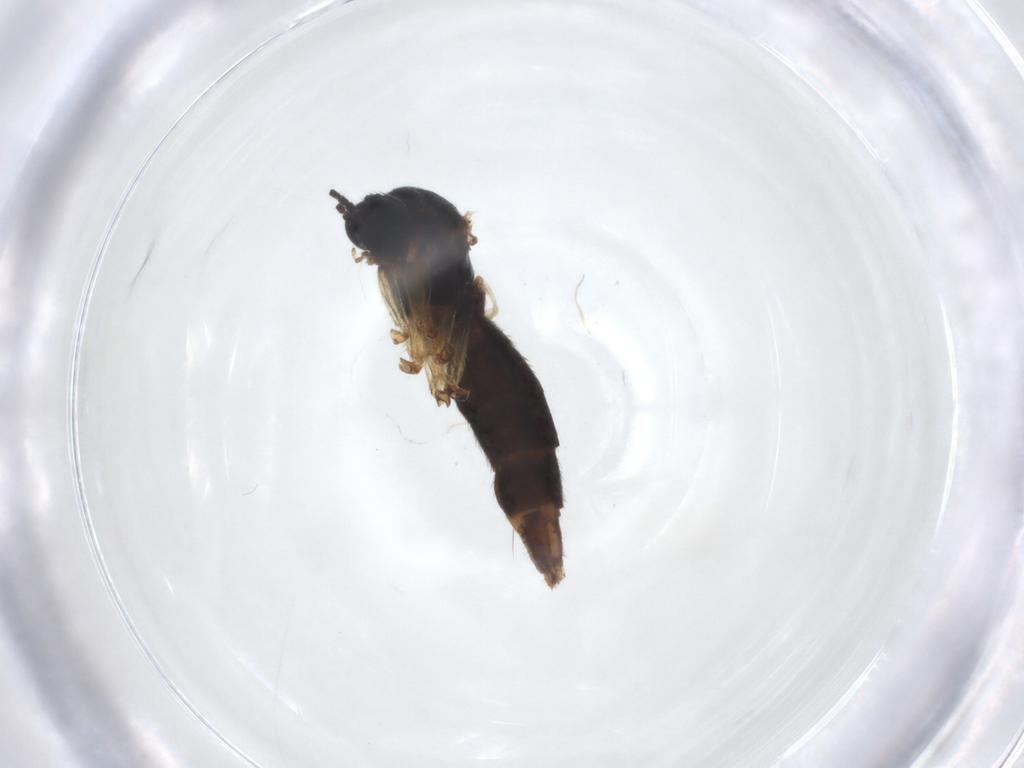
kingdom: Animalia
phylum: Arthropoda
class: Insecta
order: Diptera
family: Sciaridae
